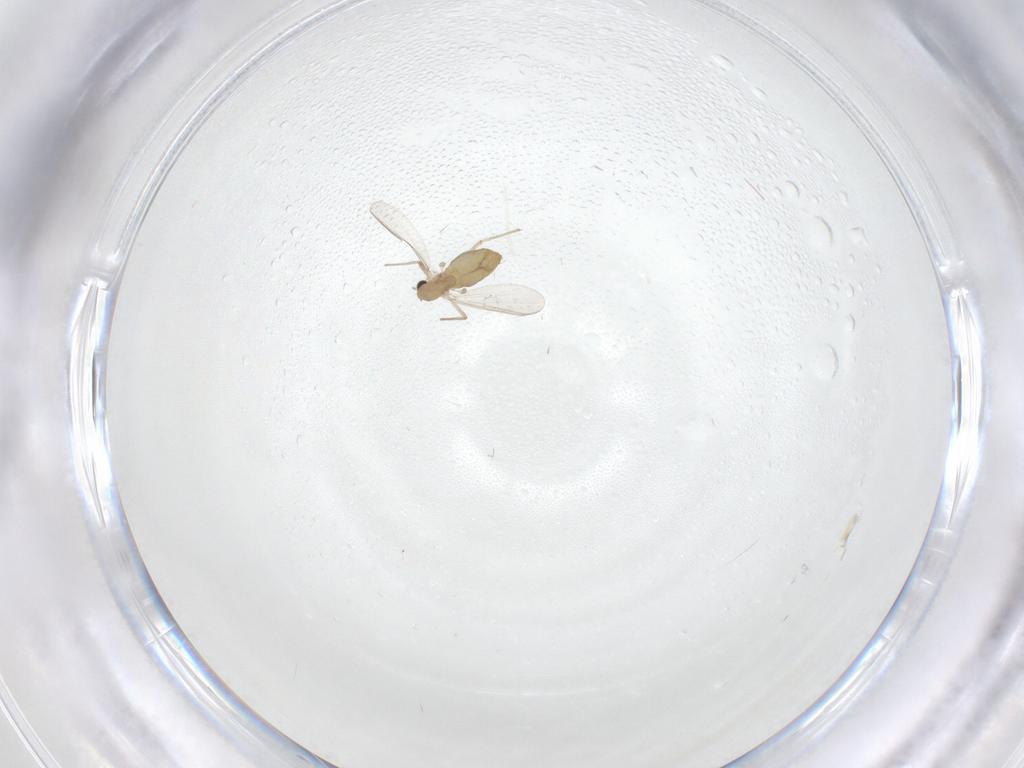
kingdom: Animalia
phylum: Arthropoda
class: Insecta
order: Diptera
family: Chironomidae
